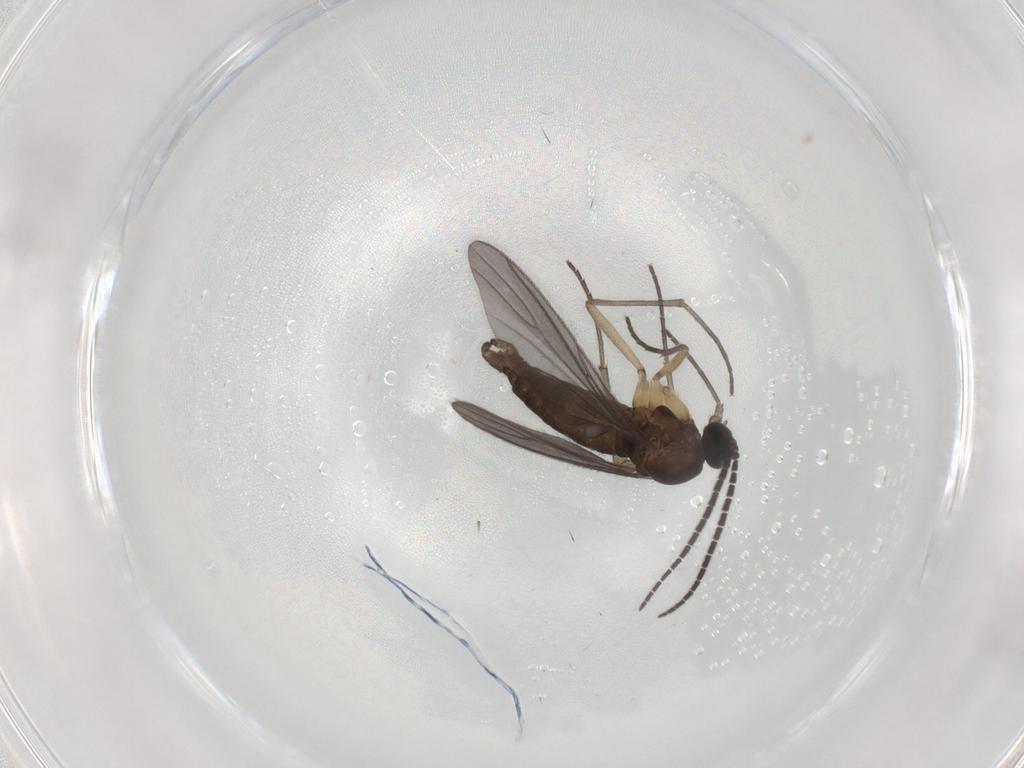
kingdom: Animalia
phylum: Arthropoda
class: Insecta
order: Diptera
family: Sciaridae
